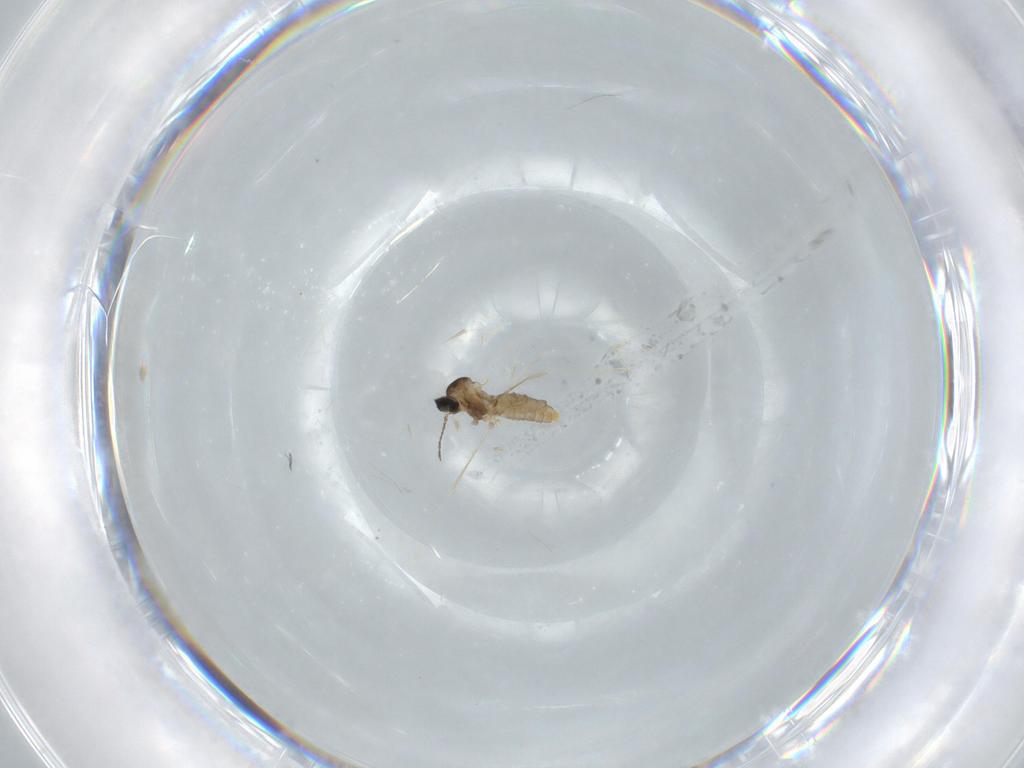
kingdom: Animalia
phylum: Arthropoda
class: Insecta
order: Diptera
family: Cecidomyiidae
